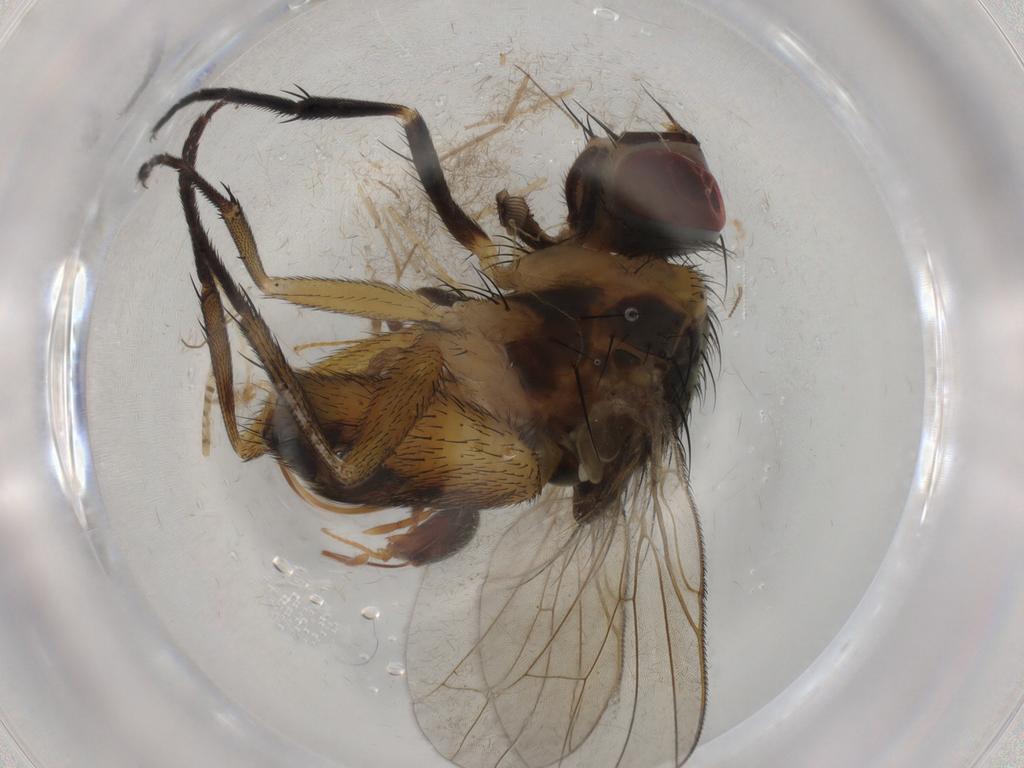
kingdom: Animalia
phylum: Arthropoda
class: Insecta
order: Diptera
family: Muscidae
